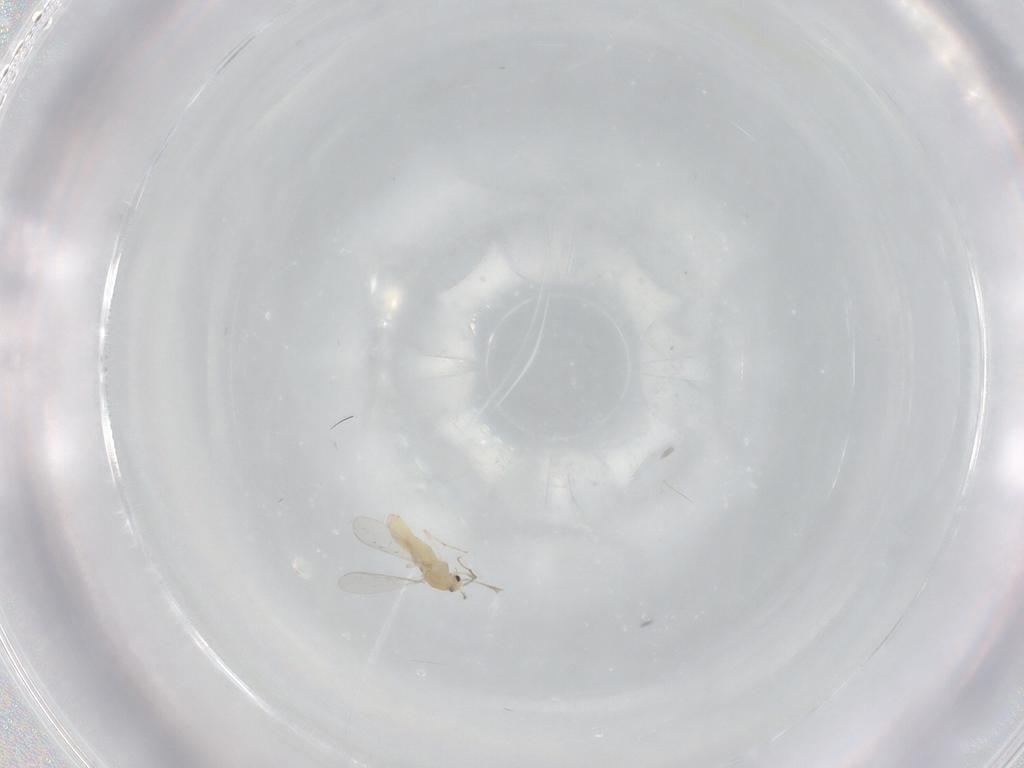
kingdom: Animalia
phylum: Arthropoda
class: Insecta
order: Diptera
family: Chironomidae
